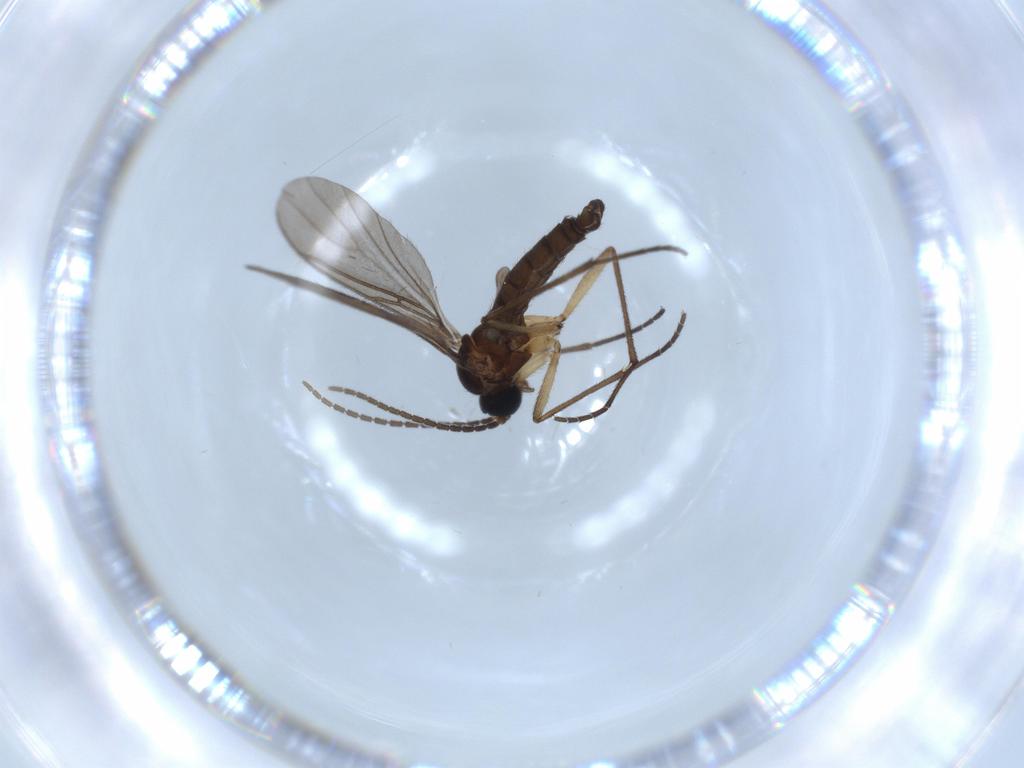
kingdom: Animalia
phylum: Arthropoda
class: Insecta
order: Diptera
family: Sciaridae
